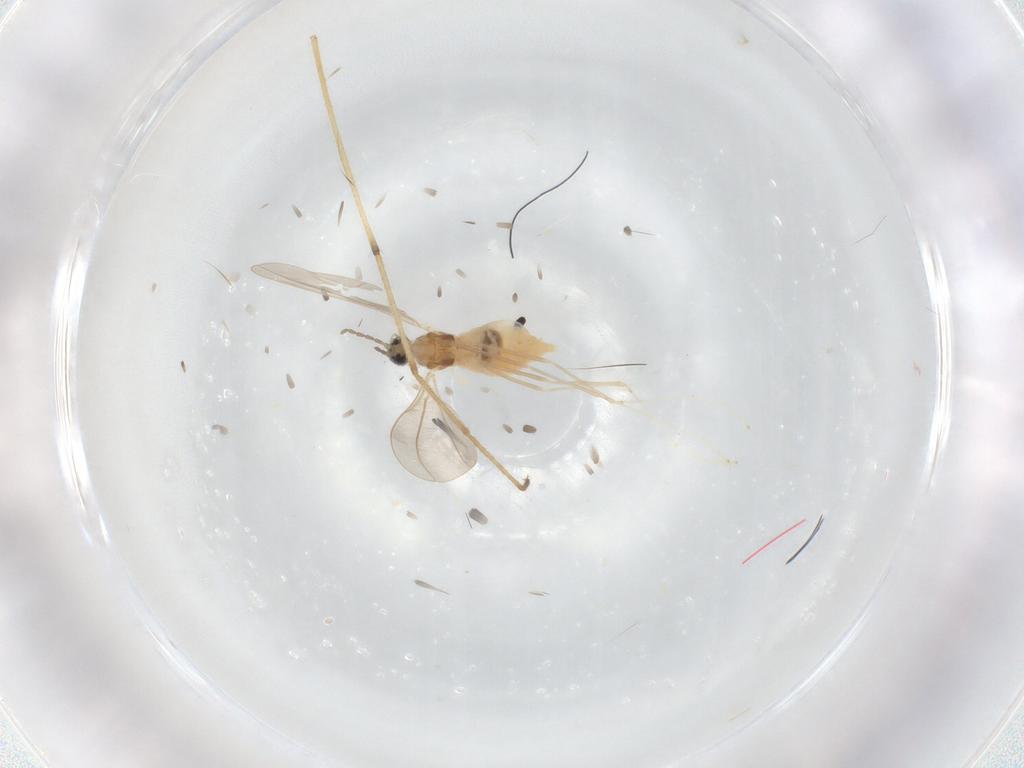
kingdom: Animalia
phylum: Arthropoda
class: Insecta
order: Diptera
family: Cecidomyiidae
